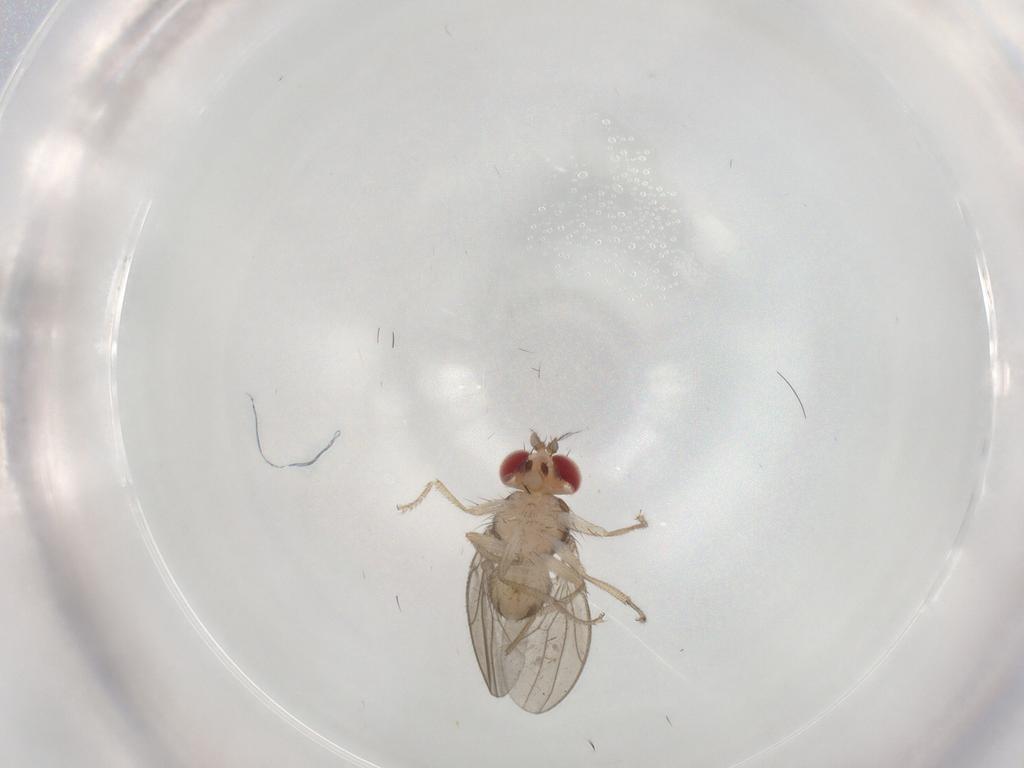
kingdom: Animalia
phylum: Arthropoda
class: Insecta
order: Diptera
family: Drosophilidae
